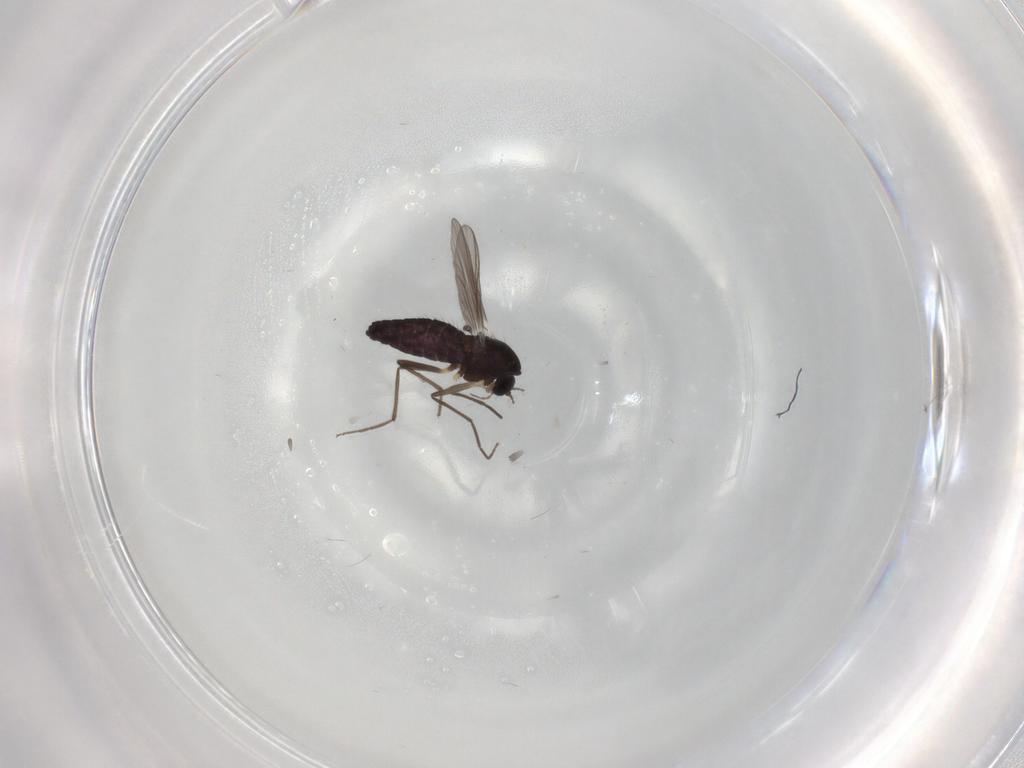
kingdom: Animalia
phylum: Arthropoda
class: Insecta
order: Diptera
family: Chironomidae
